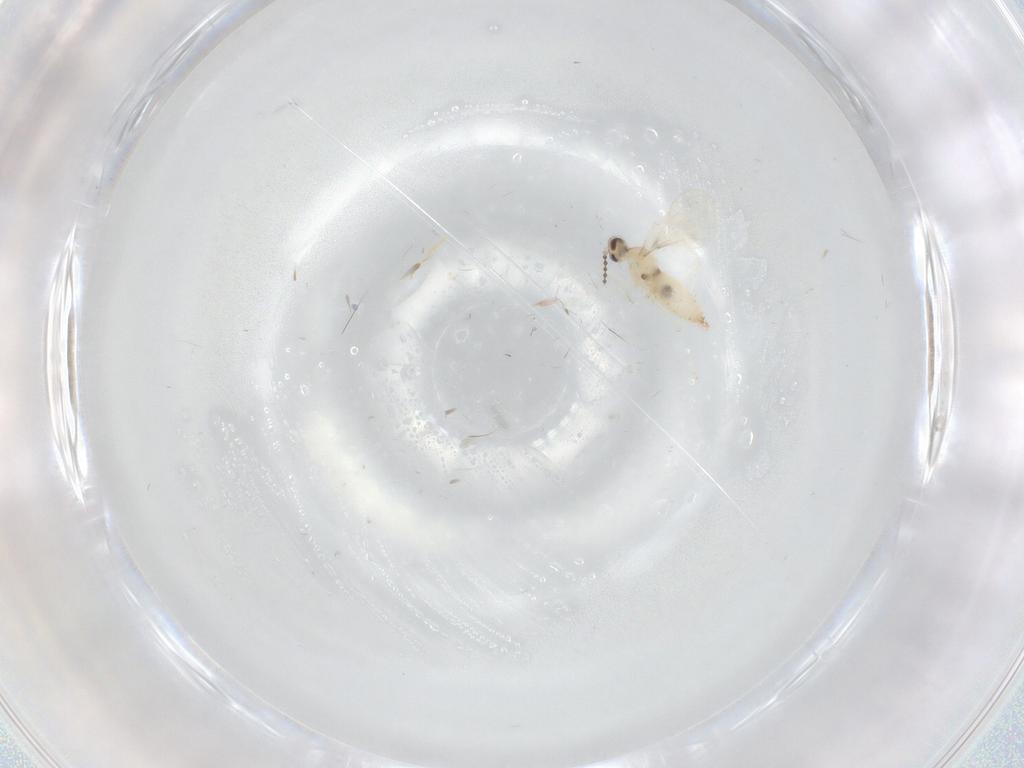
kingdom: Animalia
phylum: Arthropoda
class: Insecta
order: Diptera
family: Cecidomyiidae
